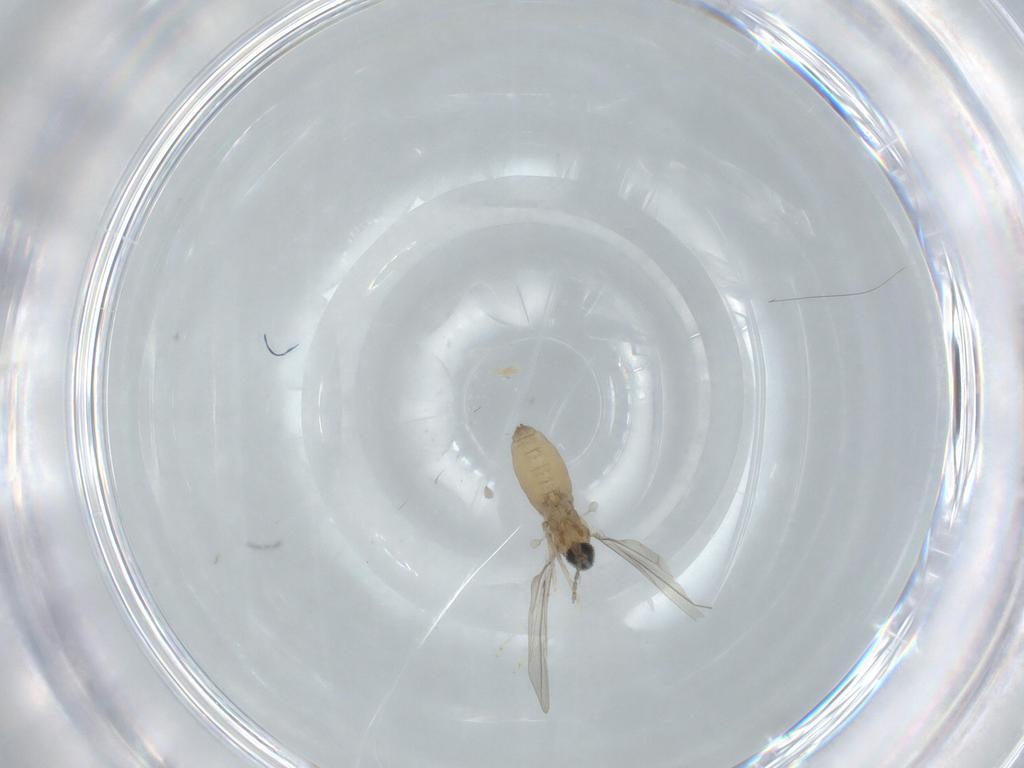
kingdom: Animalia
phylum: Arthropoda
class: Insecta
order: Diptera
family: Cecidomyiidae
